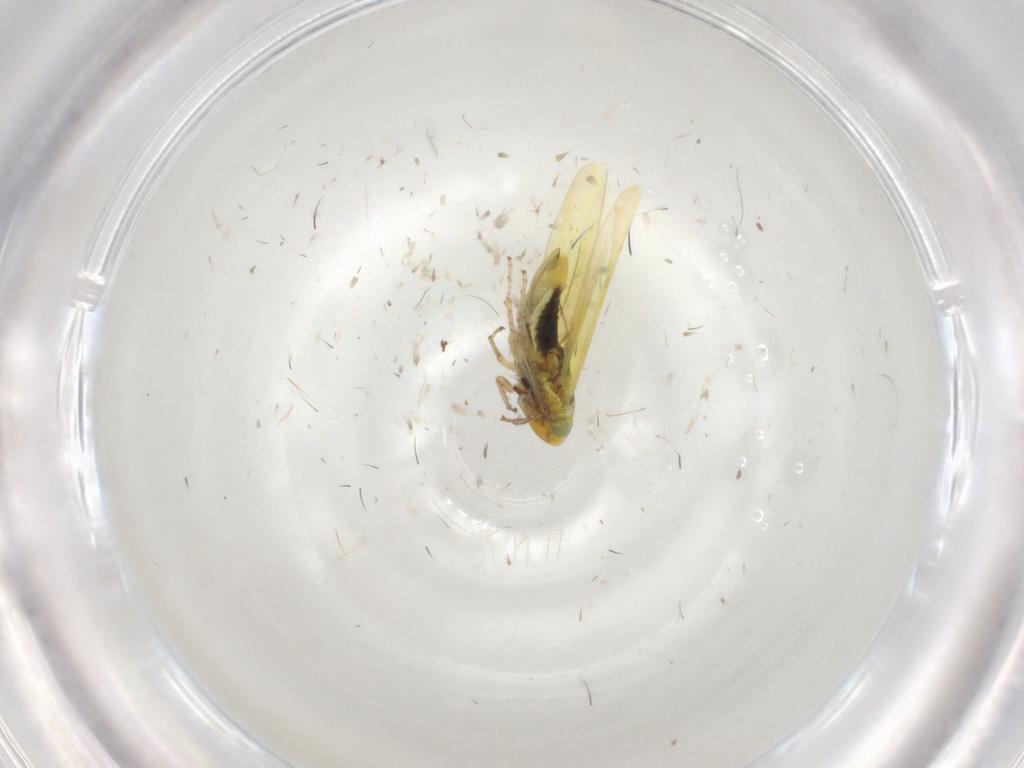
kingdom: Animalia
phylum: Arthropoda
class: Insecta
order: Hemiptera
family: Cicadellidae
